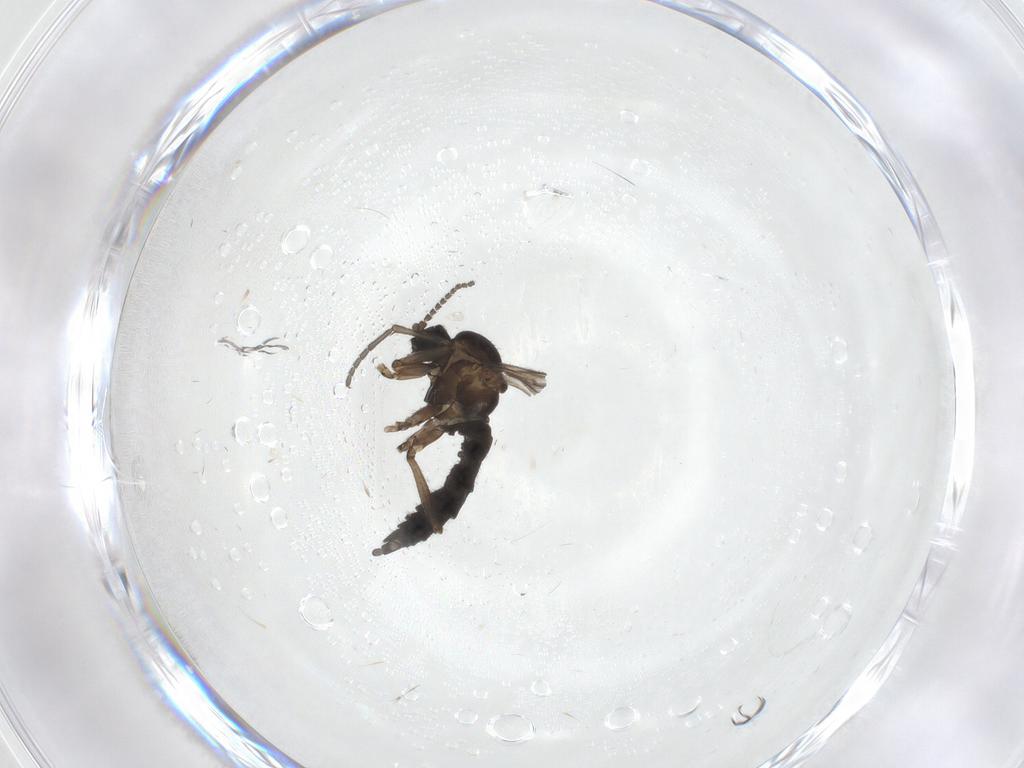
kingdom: Animalia
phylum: Arthropoda
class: Insecta
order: Diptera
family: Sciaridae
